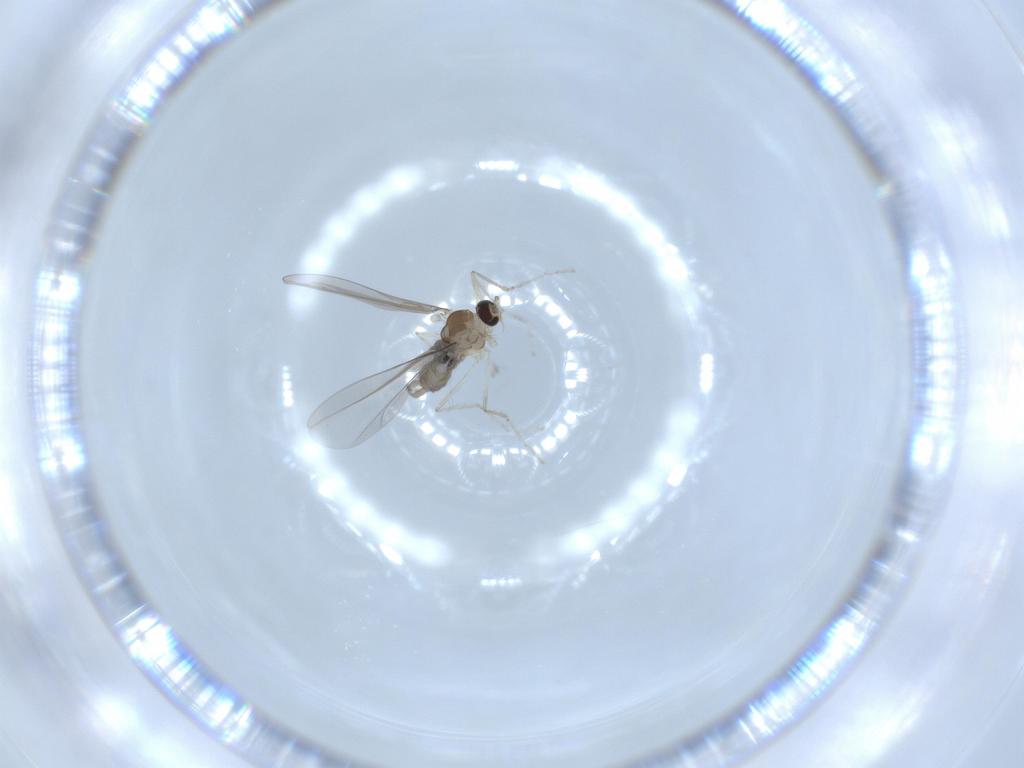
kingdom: Animalia
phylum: Arthropoda
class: Insecta
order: Diptera
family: Cecidomyiidae
